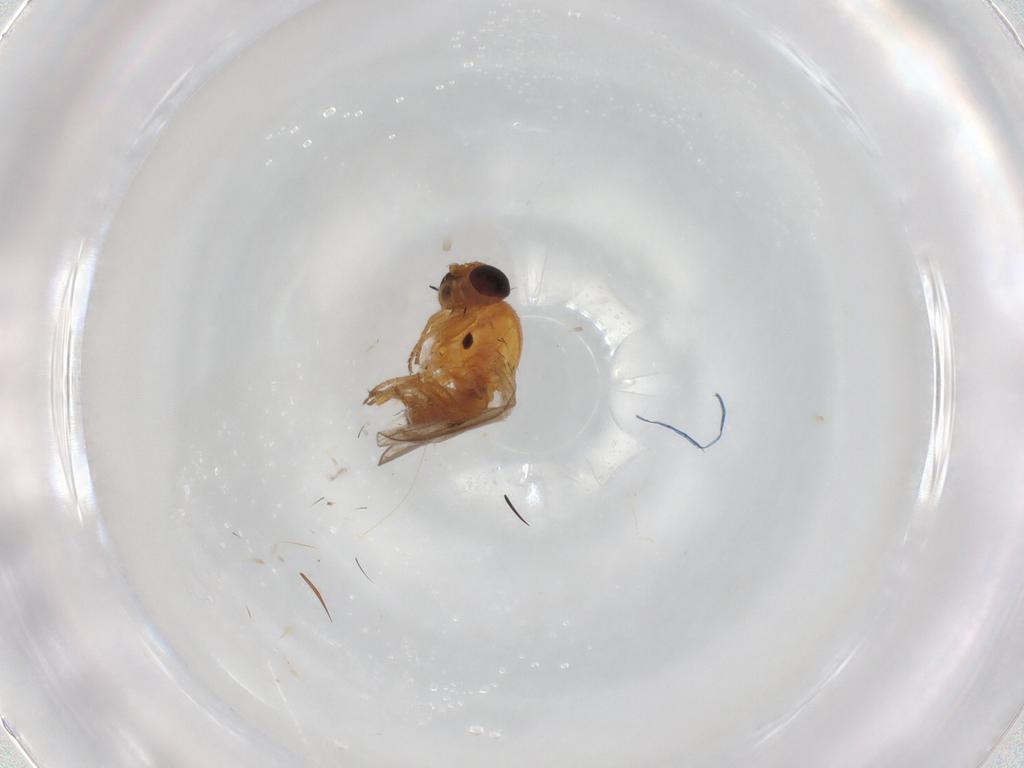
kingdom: Animalia
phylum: Arthropoda
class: Insecta
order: Diptera
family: Chloropidae
